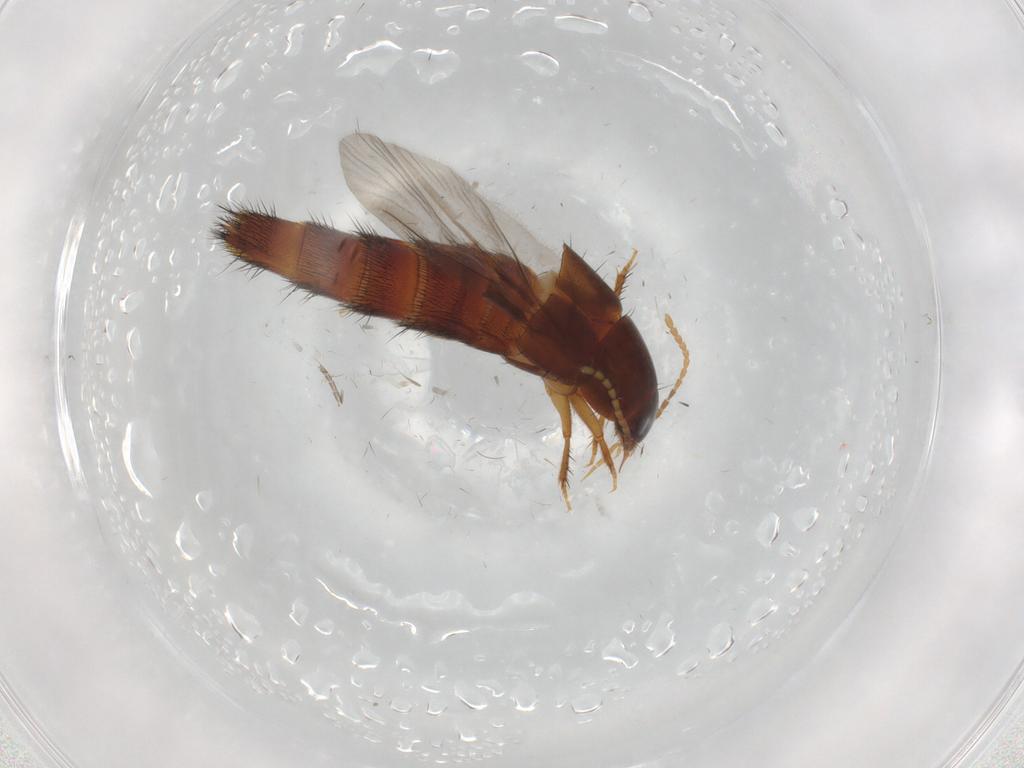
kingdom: Animalia
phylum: Arthropoda
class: Insecta
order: Coleoptera
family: Staphylinidae
